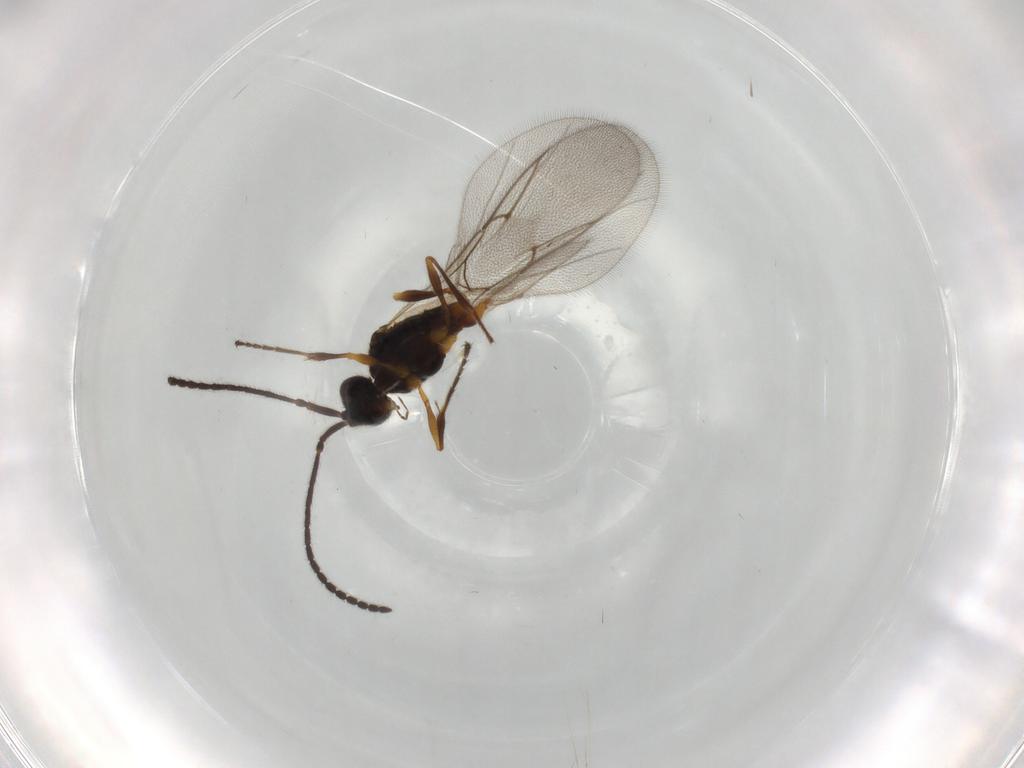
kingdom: Animalia
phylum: Arthropoda
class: Insecta
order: Hymenoptera
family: Diapriidae
